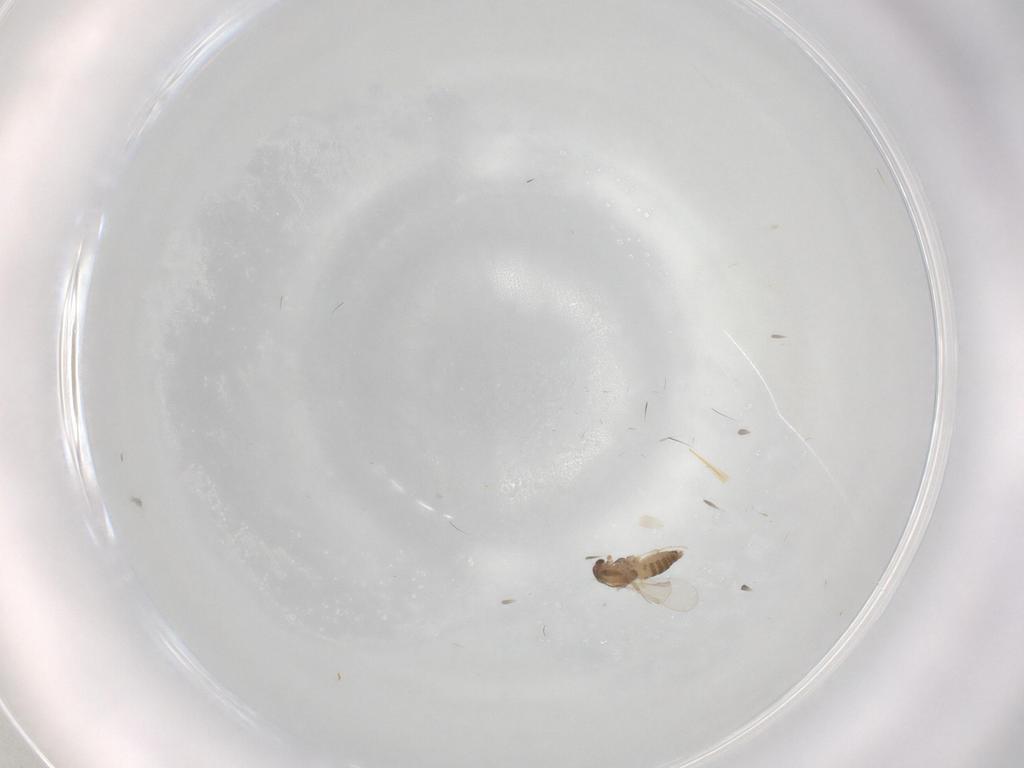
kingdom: Animalia
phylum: Arthropoda
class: Insecta
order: Diptera
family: Chironomidae
